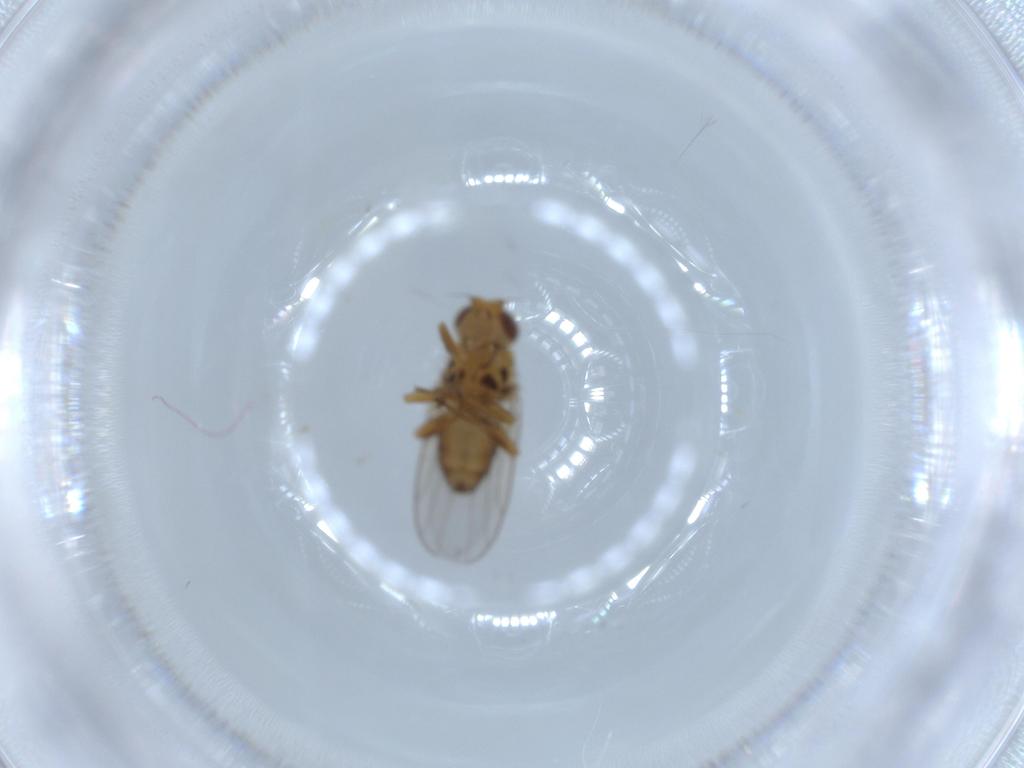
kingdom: Animalia
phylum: Arthropoda
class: Insecta
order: Diptera
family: Chloropidae
